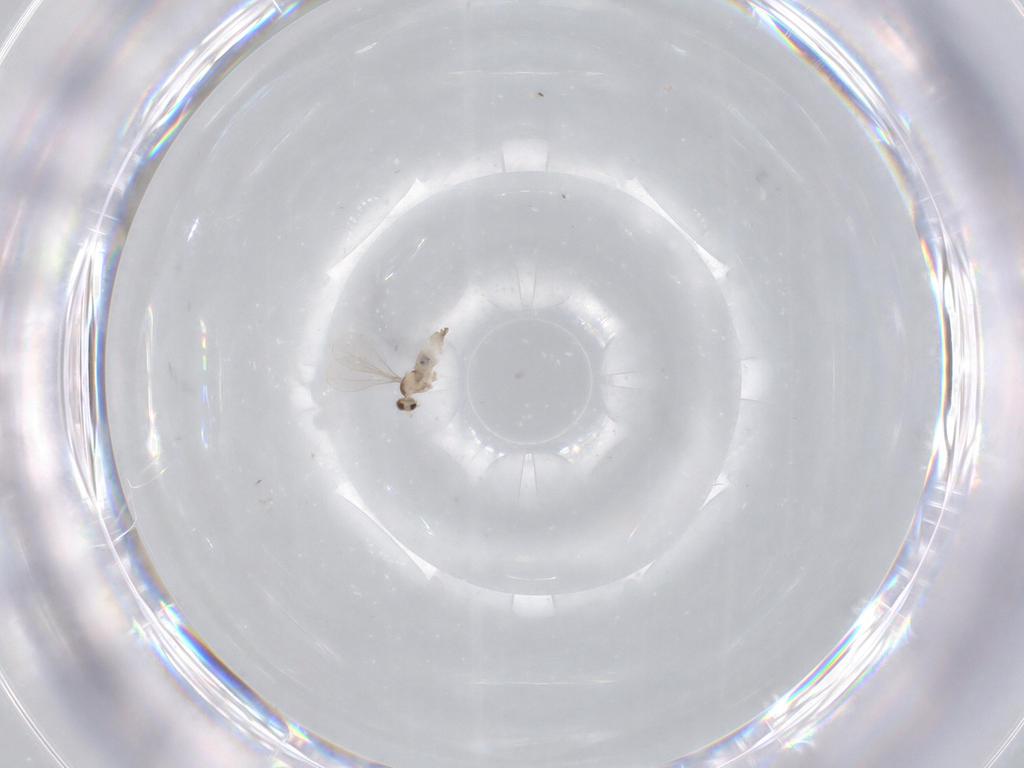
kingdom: Animalia
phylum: Arthropoda
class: Insecta
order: Diptera
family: Cecidomyiidae
